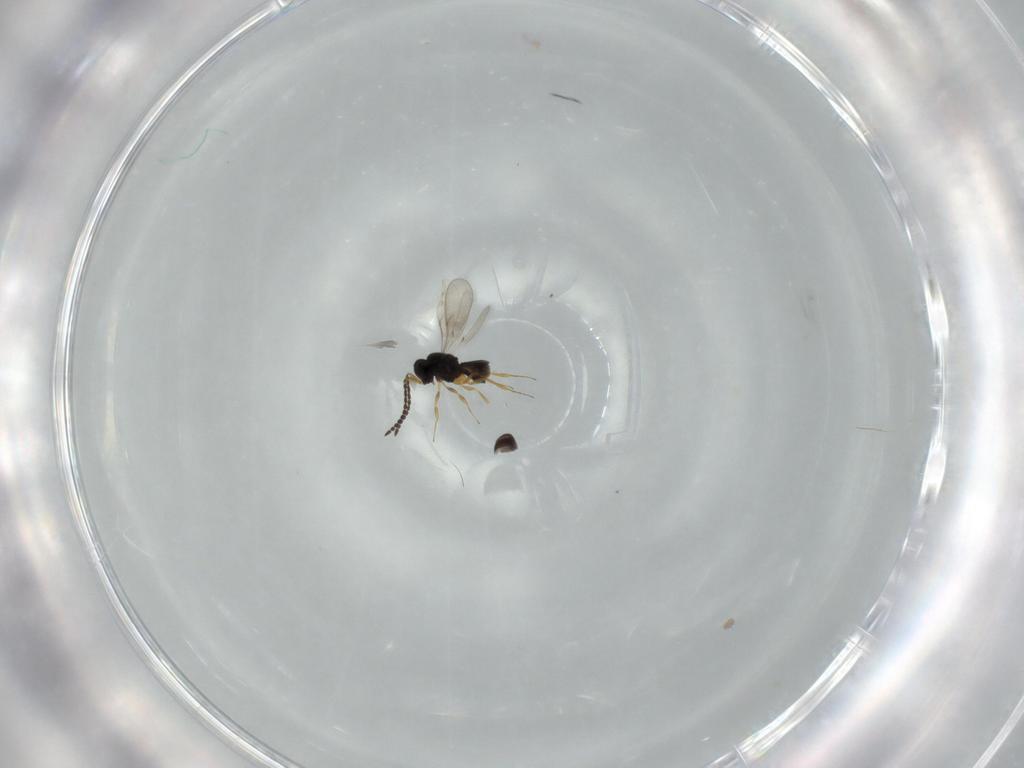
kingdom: Animalia
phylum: Arthropoda
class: Insecta
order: Hymenoptera
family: Scelionidae
